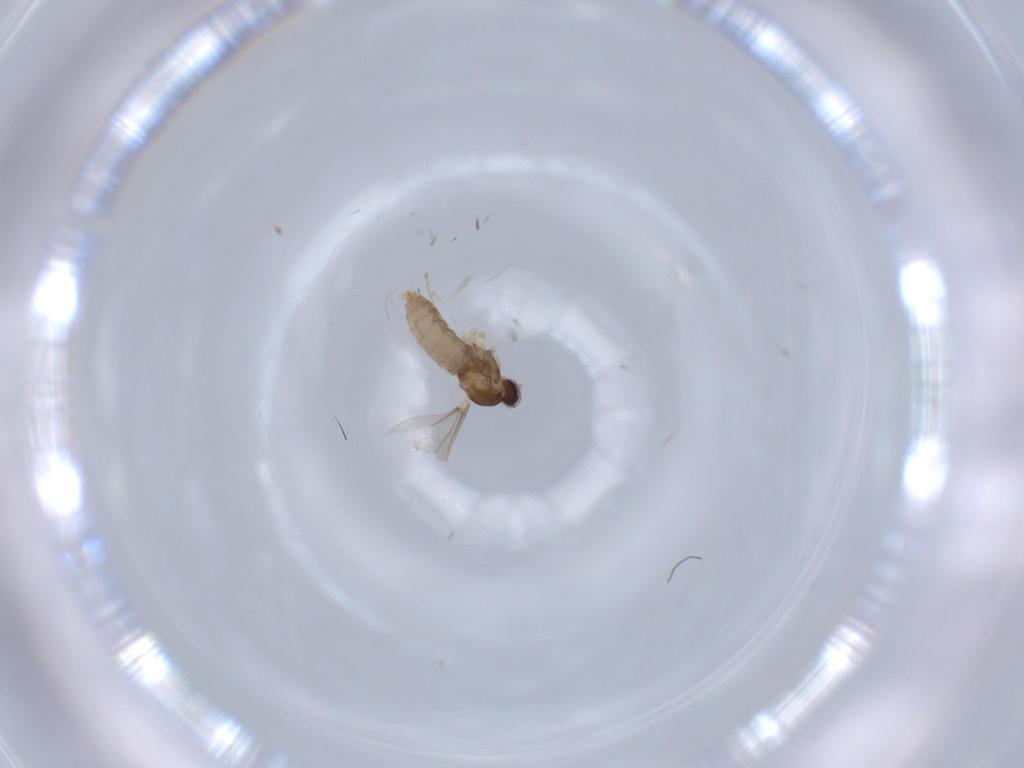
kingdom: Animalia
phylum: Arthropoda
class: Insecta
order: Diptera
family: Cecidomyiidae
